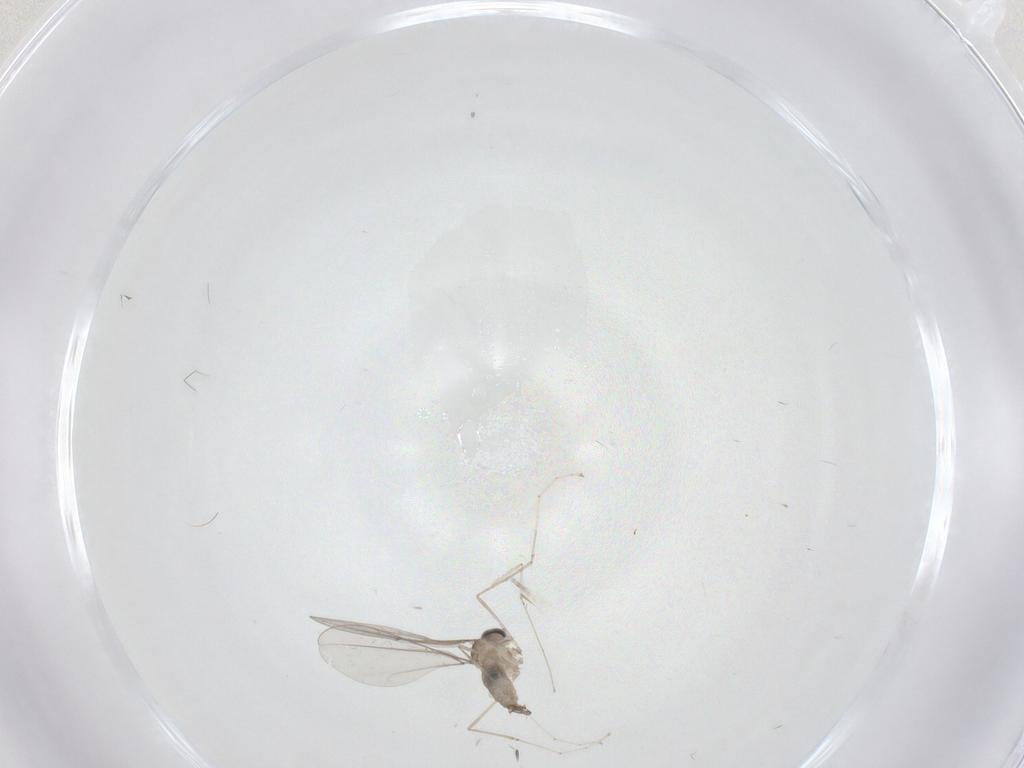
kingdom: Animalia
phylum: Arthropoda
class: Insecta
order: Diptera
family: Cecidomyiidae
